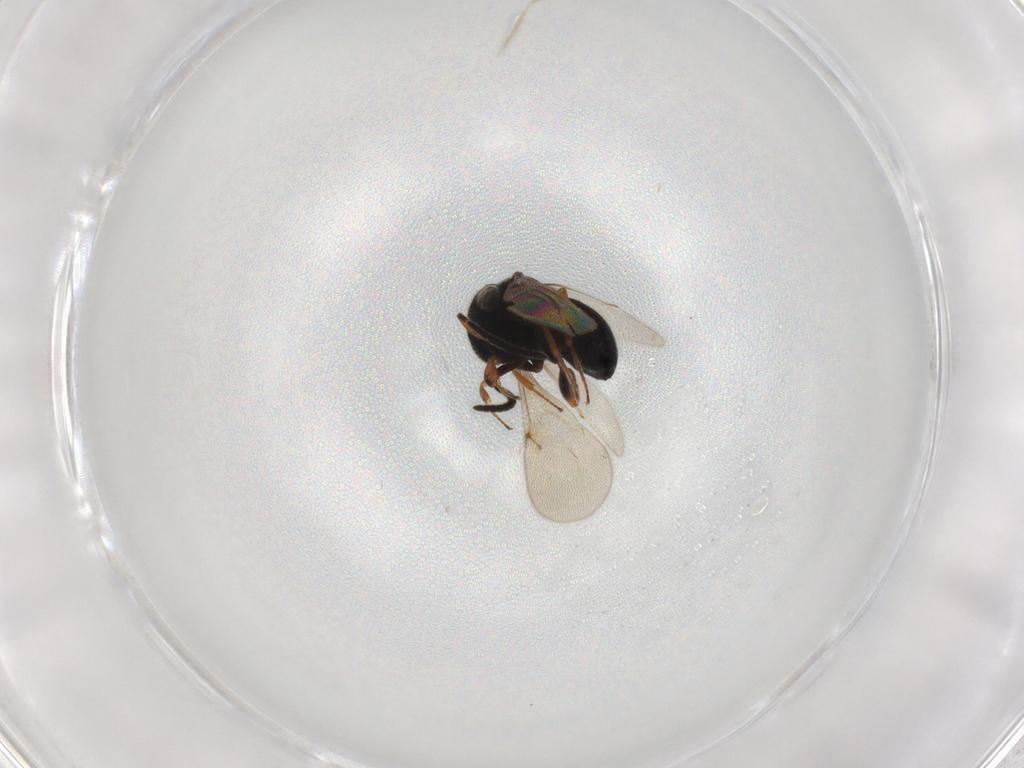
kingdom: Animalia
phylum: Arthropoda
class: Insecta
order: Hymenoptera
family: Scelionidae
